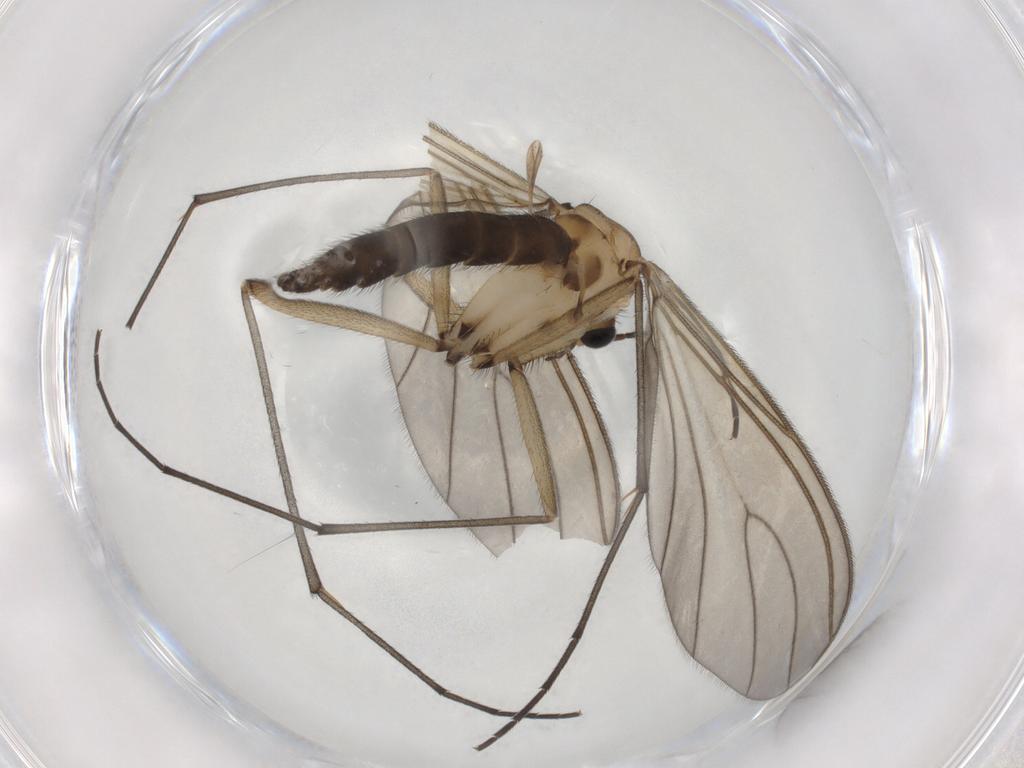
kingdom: Animalia
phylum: Arthropoda
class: Insecta
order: Diptera
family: Sciaridae
